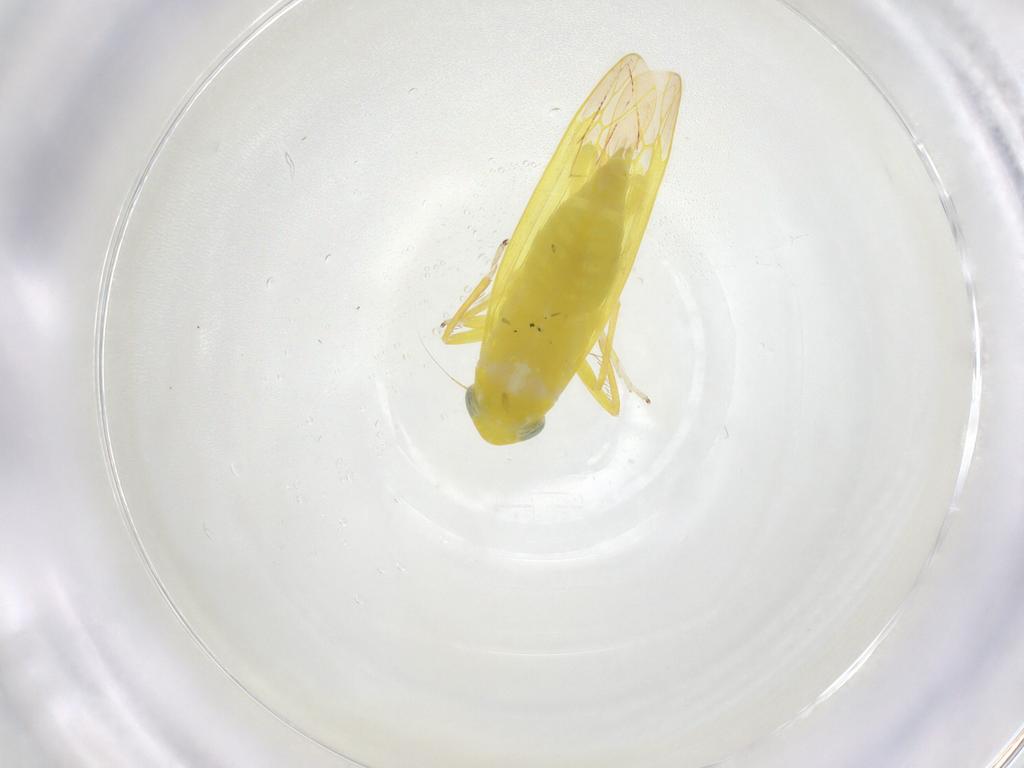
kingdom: Animalia
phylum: Arthropoda
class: Insecta
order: Hemiptera
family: Cicadellidae
